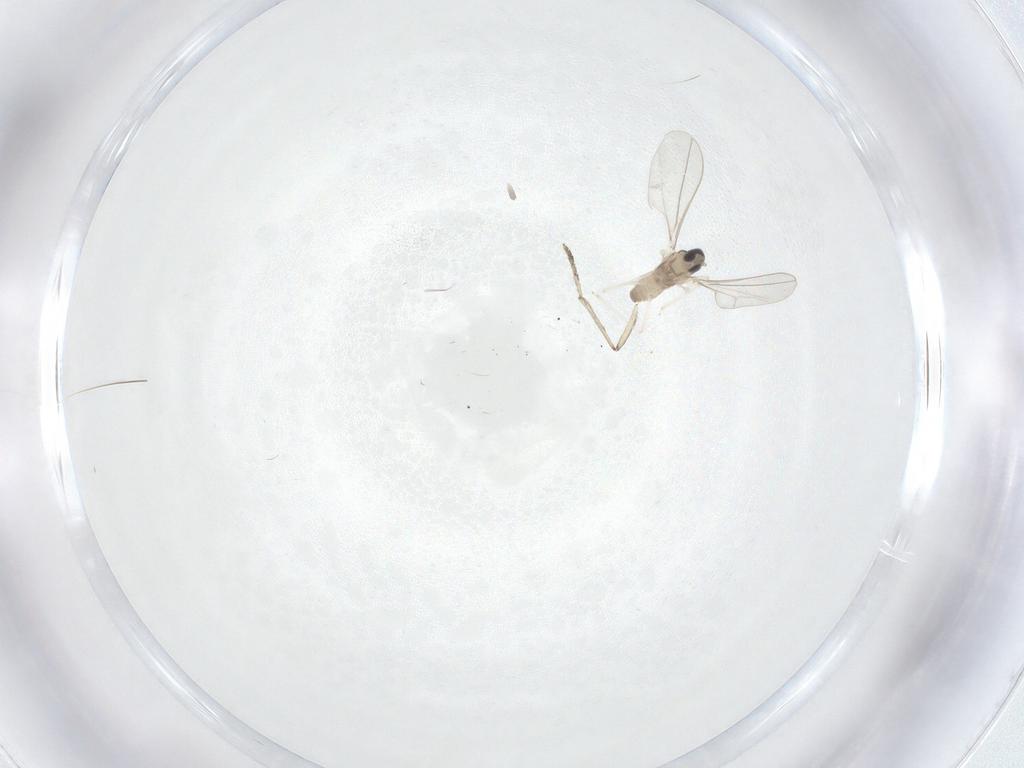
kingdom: Animalia
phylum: Arthropoda
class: Insecta
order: Diptera
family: Cecidomyiidae
